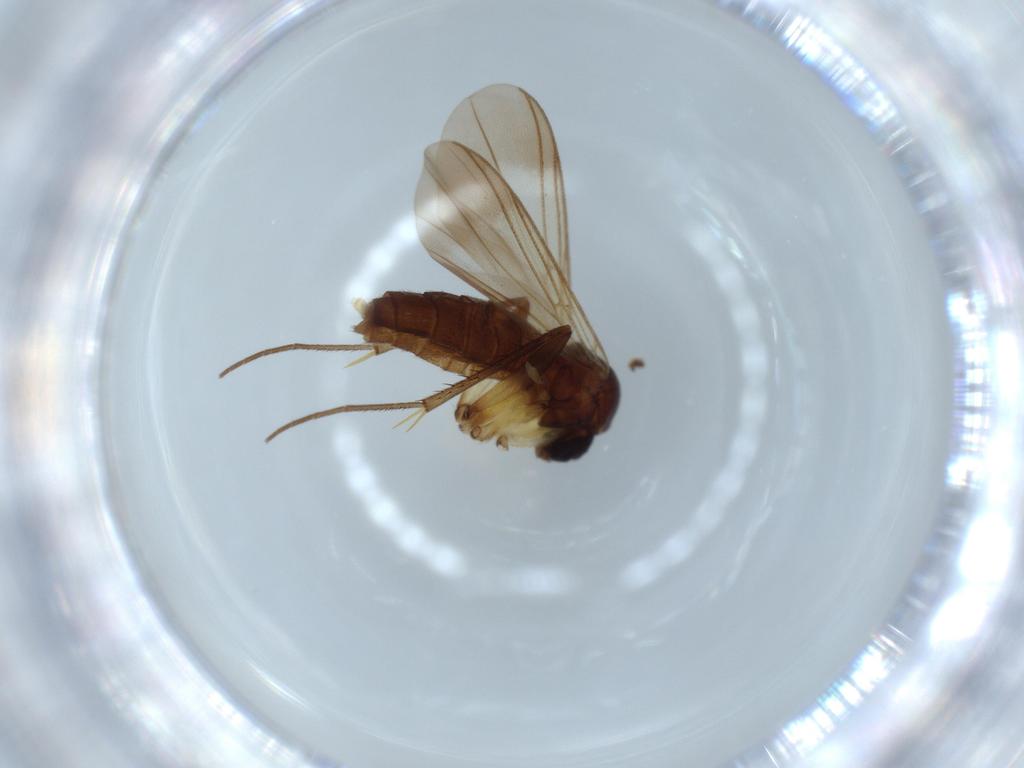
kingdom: Animalia
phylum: Arthropoda
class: Insecta
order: Diptera
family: Mycetophilidae
